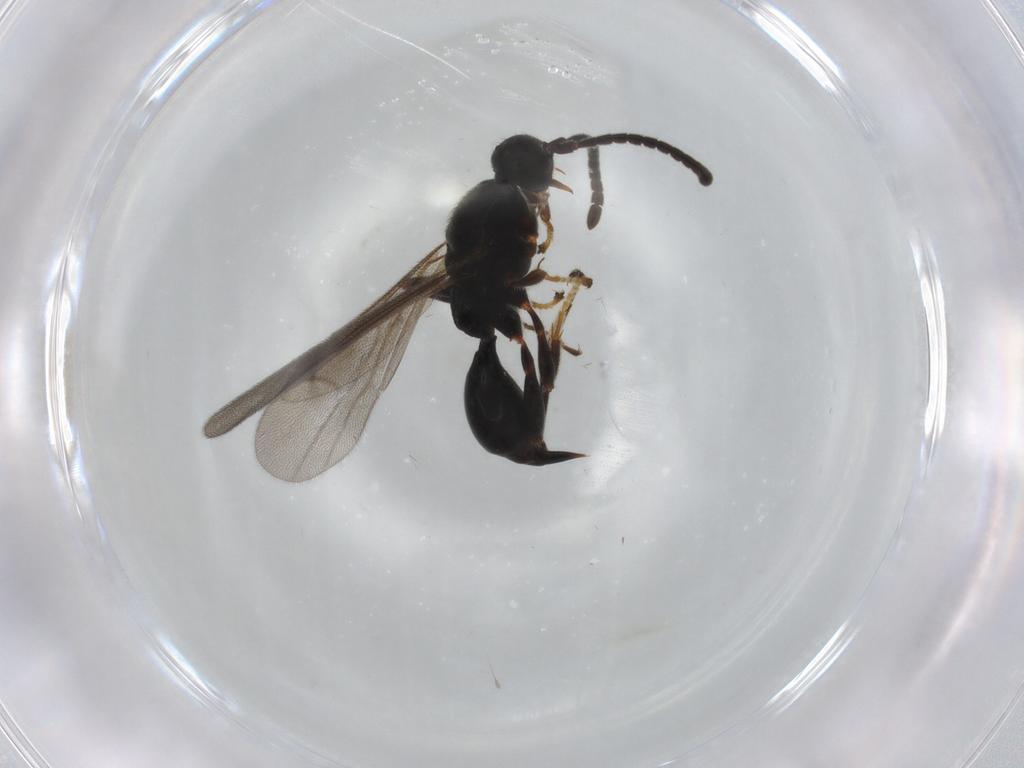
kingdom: Animalia
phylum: Arthropoda
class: Insecta
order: Hymenoptera
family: Proctotrupidae
